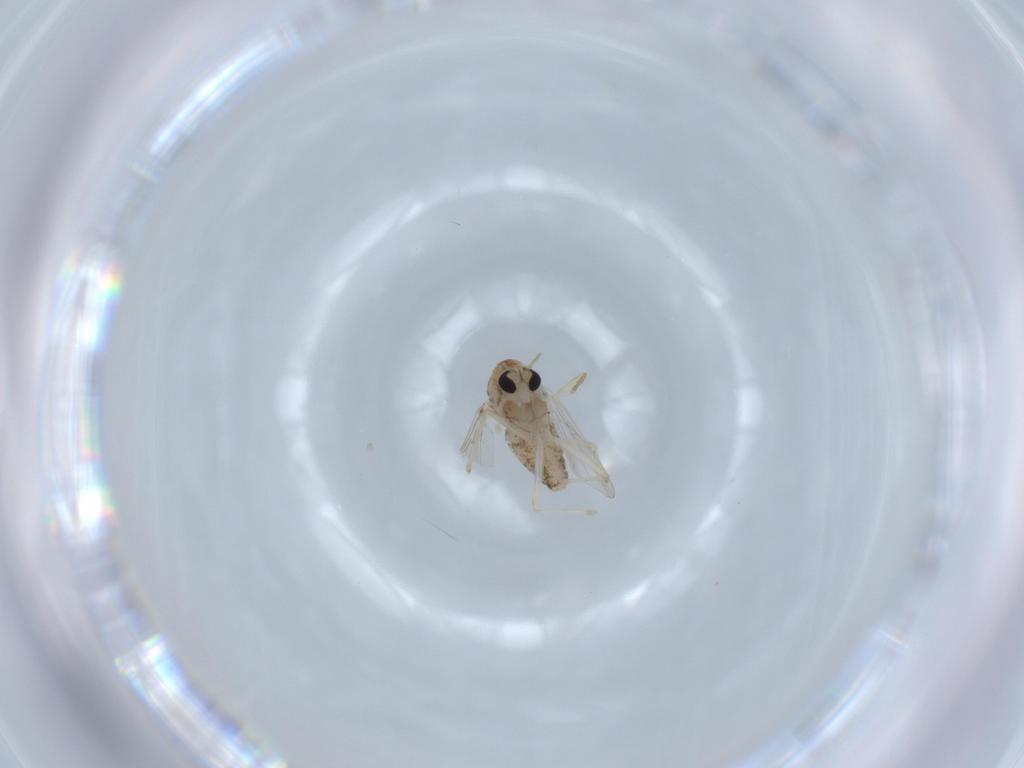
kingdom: Animalia
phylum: Arthropoda
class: Insecta
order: Diptera
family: Chironomidae
